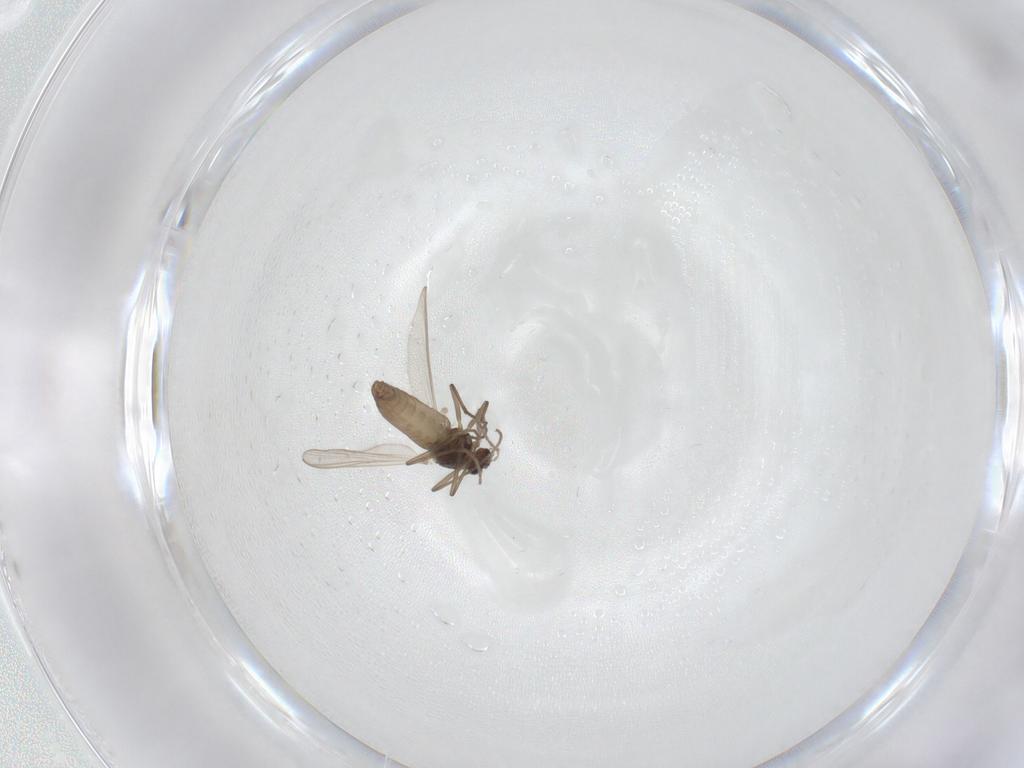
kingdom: Animalia
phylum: Arthropoda
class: Insecta
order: Diptera
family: Chironomidae
